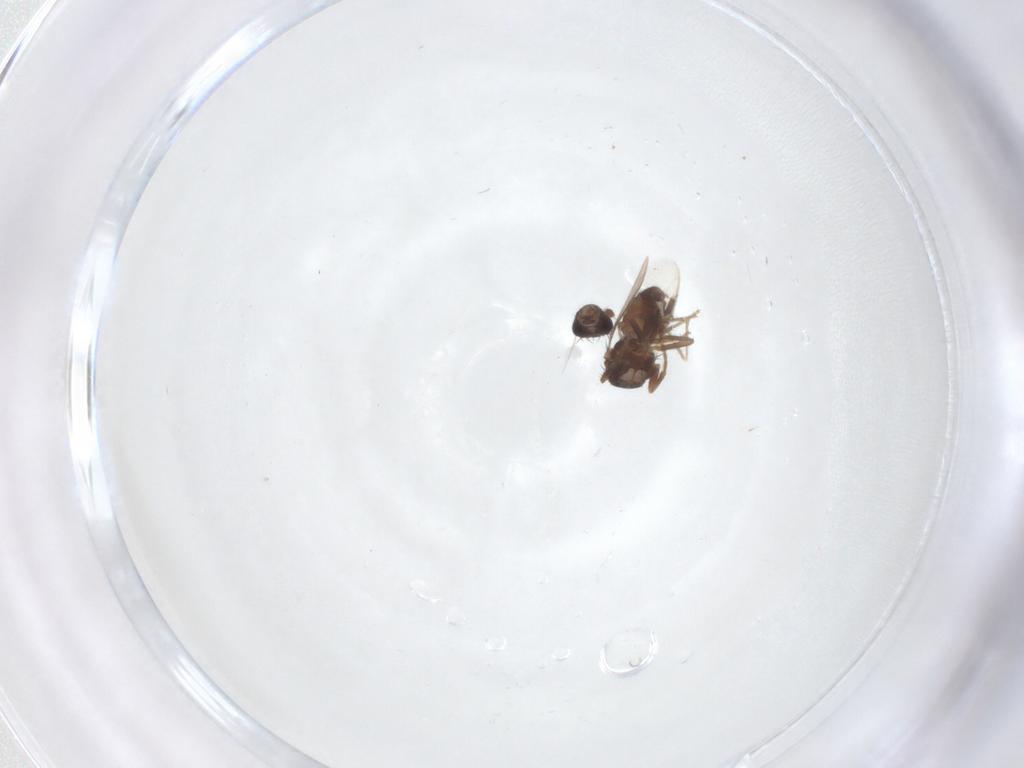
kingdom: Animalia
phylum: Arthropoda
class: Insecta
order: Diptera
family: Sphaeroceridae
